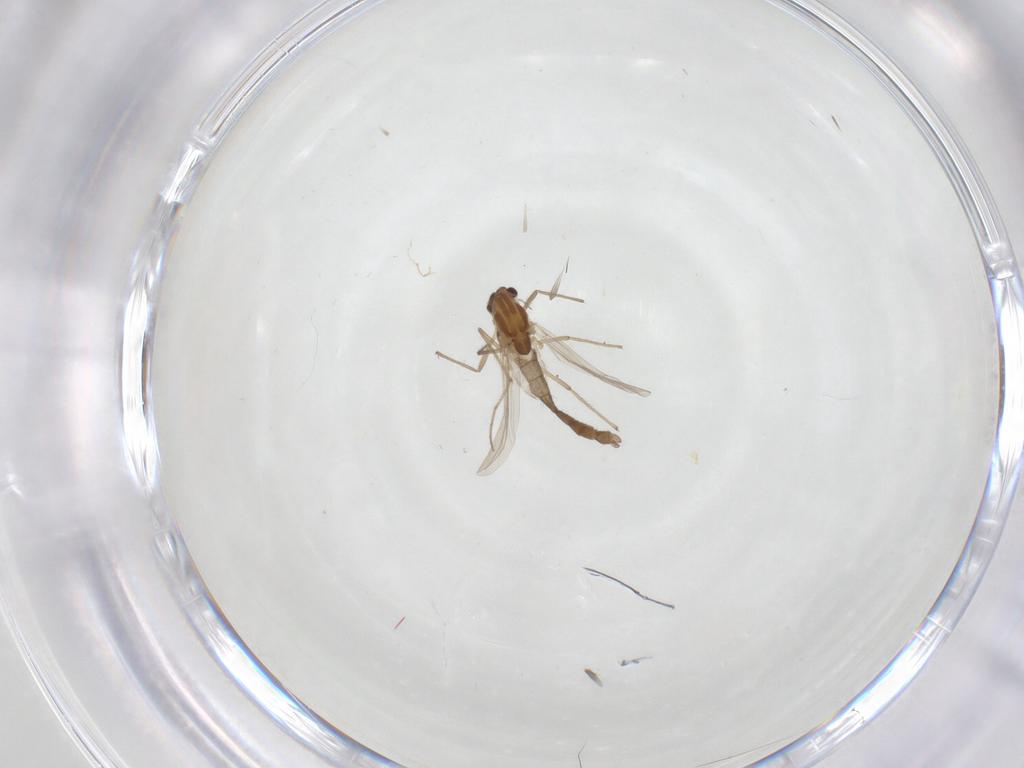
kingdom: Animalia
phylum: Arthropoda
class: Insecta
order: Diptera
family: Chironomidae
